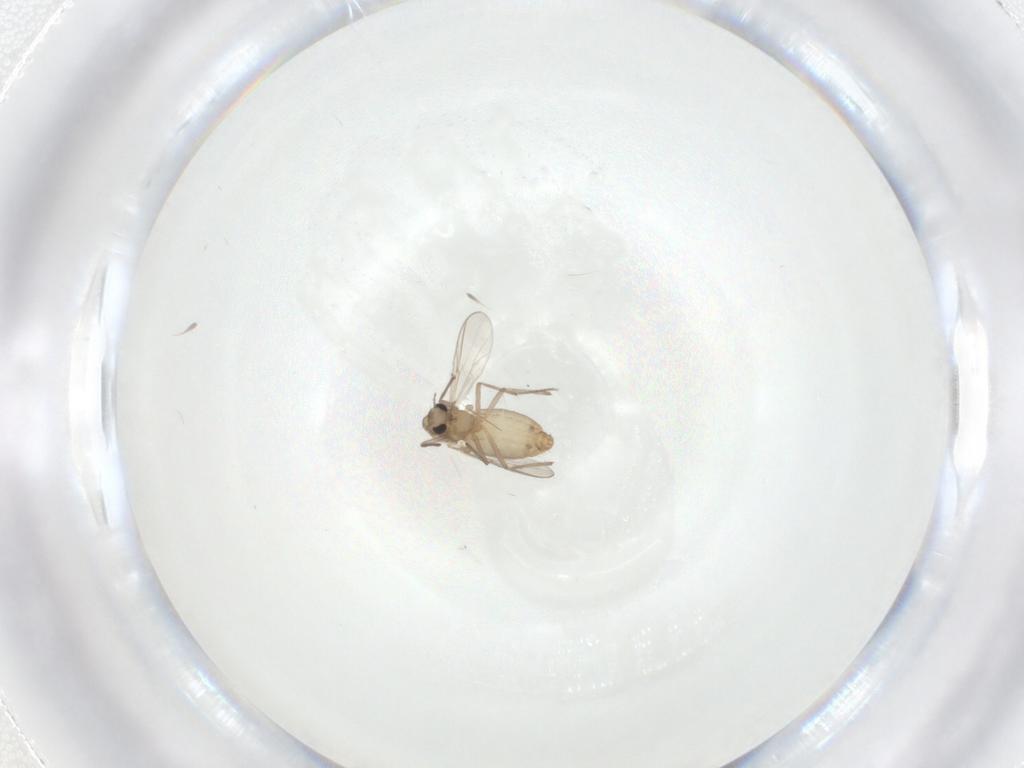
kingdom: Animalia
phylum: Arthropoda
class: Insecta
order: Diptera
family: Chironomidae
